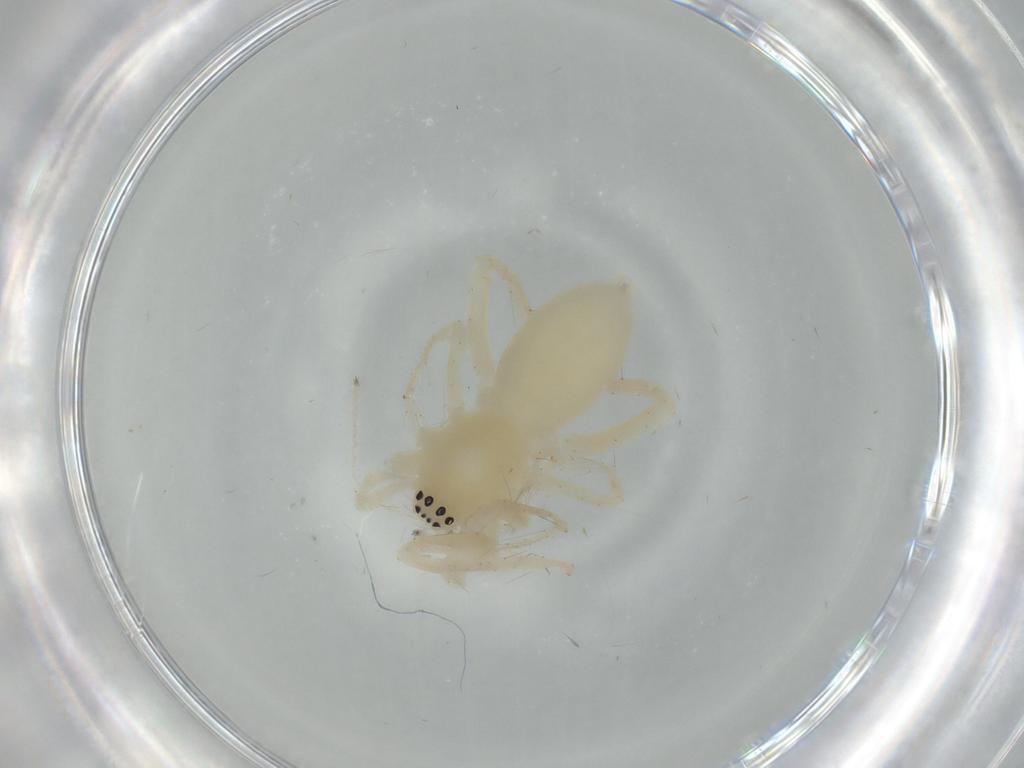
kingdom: Animalia
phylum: Arthropoda
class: Arachnida
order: Araneae
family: Anyphaenidae
